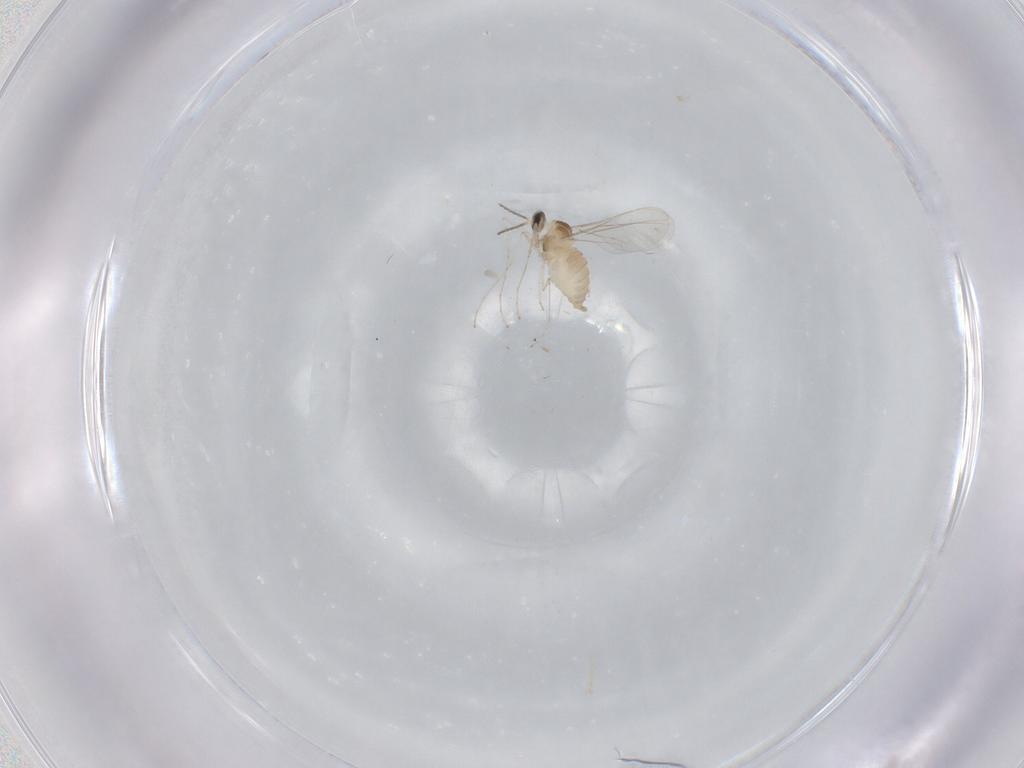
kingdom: Animalia
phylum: Arthropoda
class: Insecta
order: Diptera
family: Cecidomyiidae
